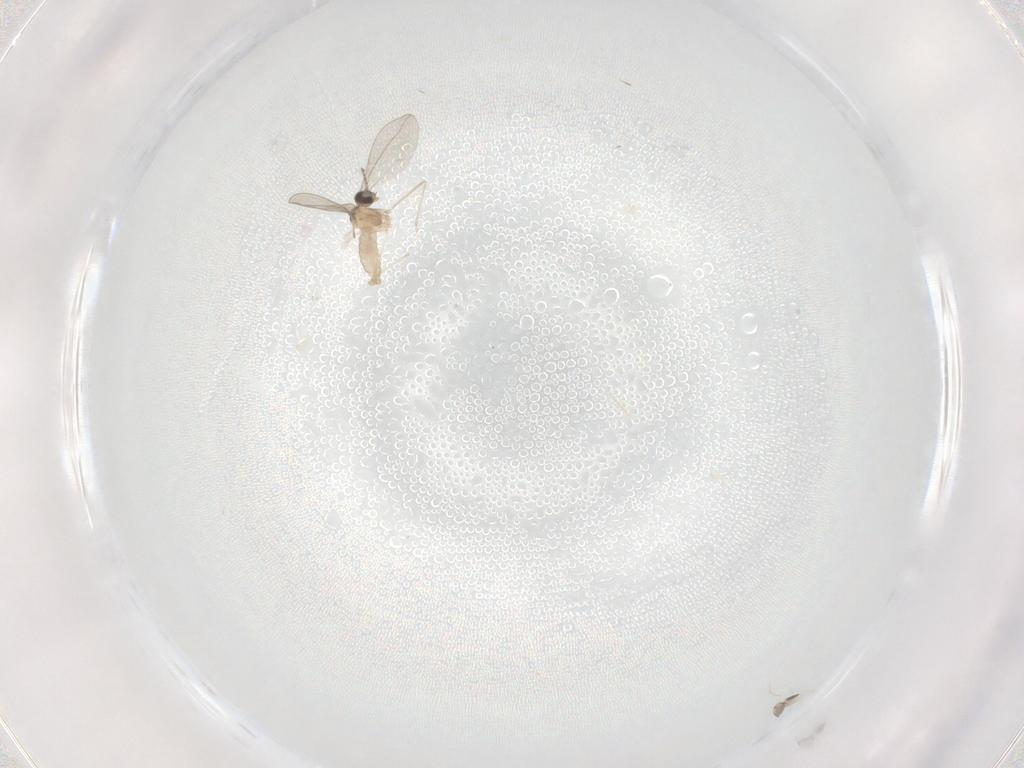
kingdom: Animalia
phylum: Arthropoda
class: Insecta
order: Diptera
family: Cecidomyiidae
